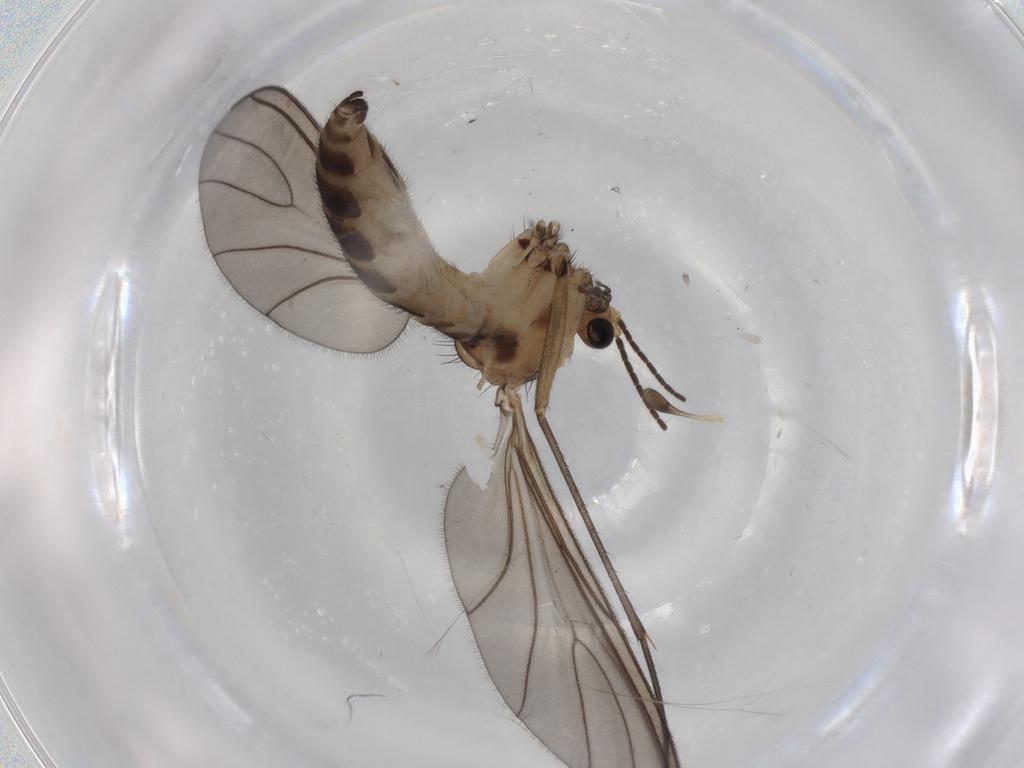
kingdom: Animalia
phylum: Arthropoda
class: Insecta
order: Diptera
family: Sciaridae
